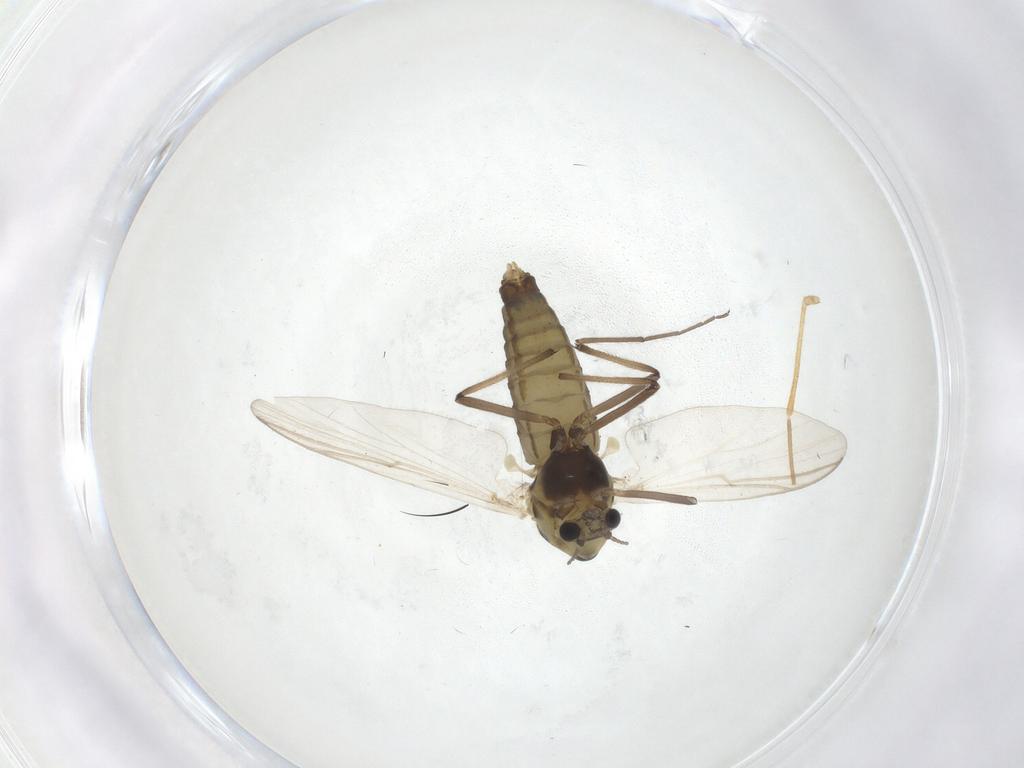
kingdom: Animalia
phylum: Arthropoda
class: Insecta
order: Diptera
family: Chironomidae
